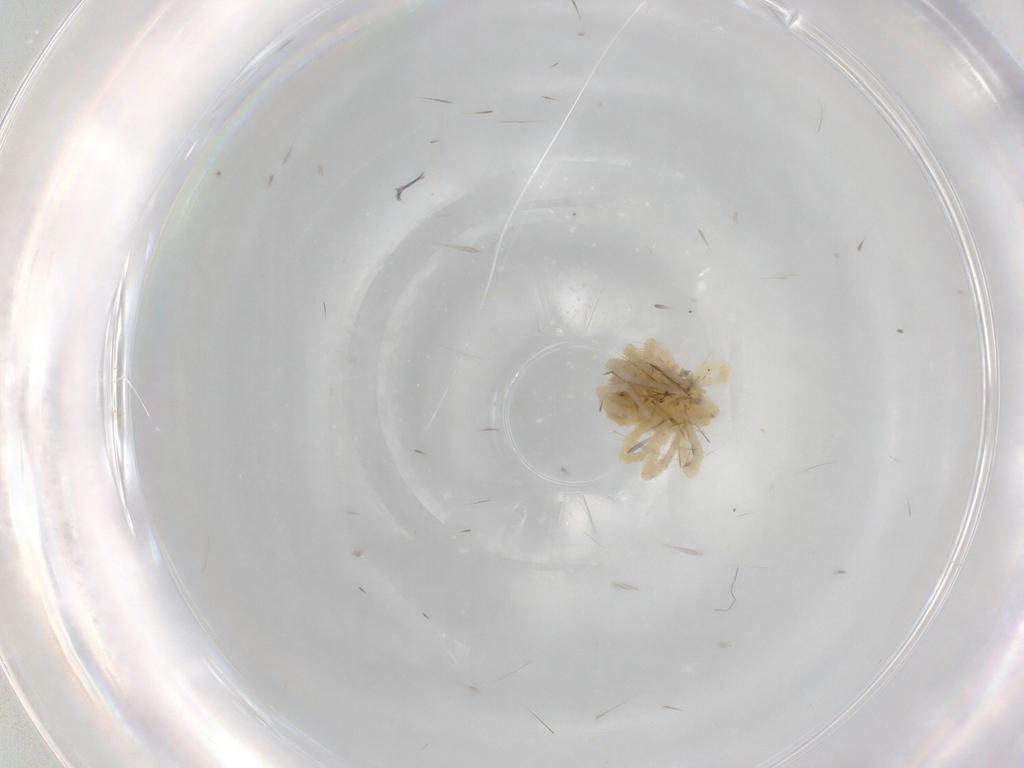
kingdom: Animalia
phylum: Arthropoda
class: Arachnida
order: Trombidiformes
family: Anystidae
